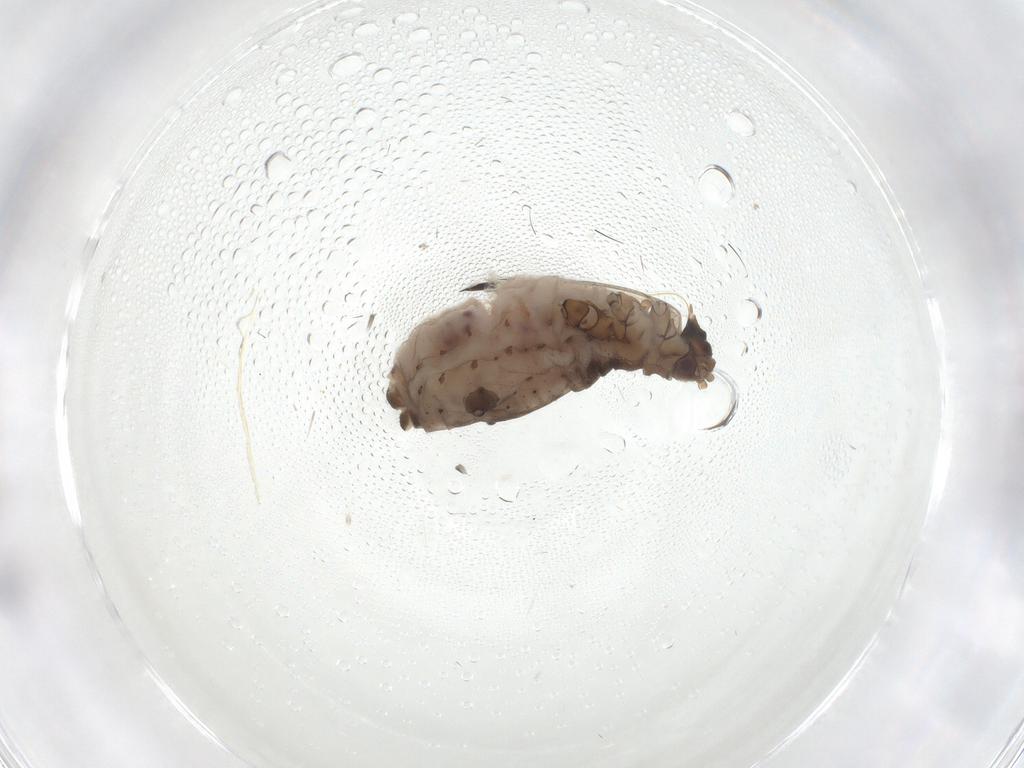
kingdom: Animalia
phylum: Arthropoda
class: Insecta
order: Hemiptera
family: Aphididae
